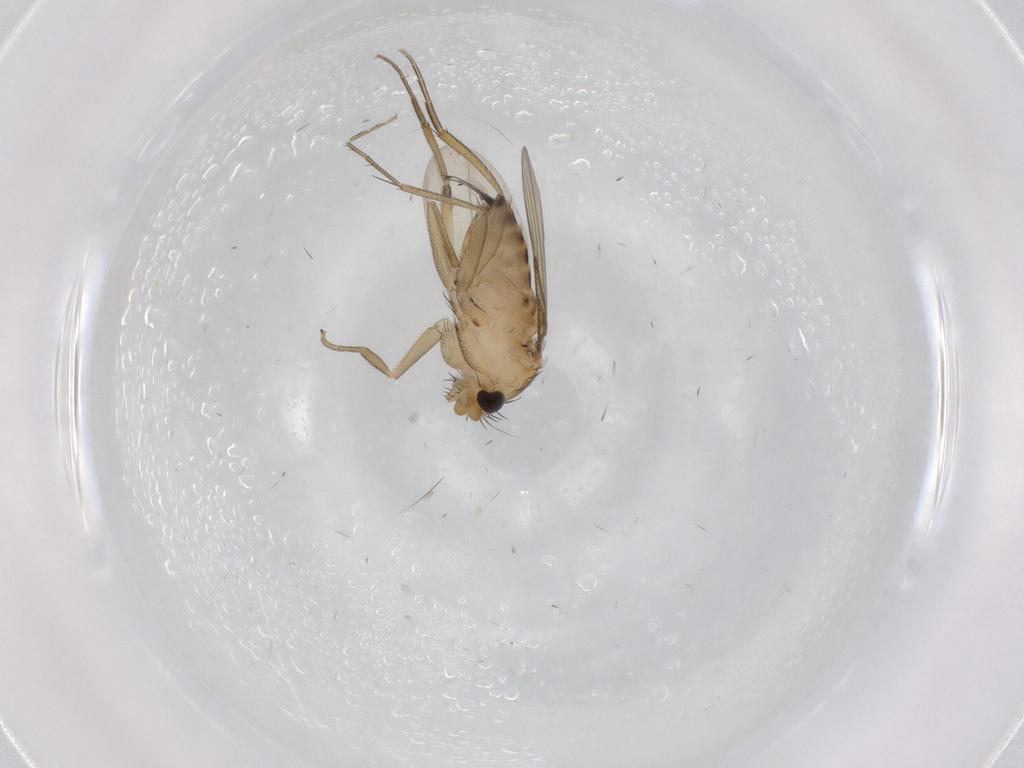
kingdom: Animalia
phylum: Arthropoda
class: Insecta
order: Diptera
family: Phoridae
